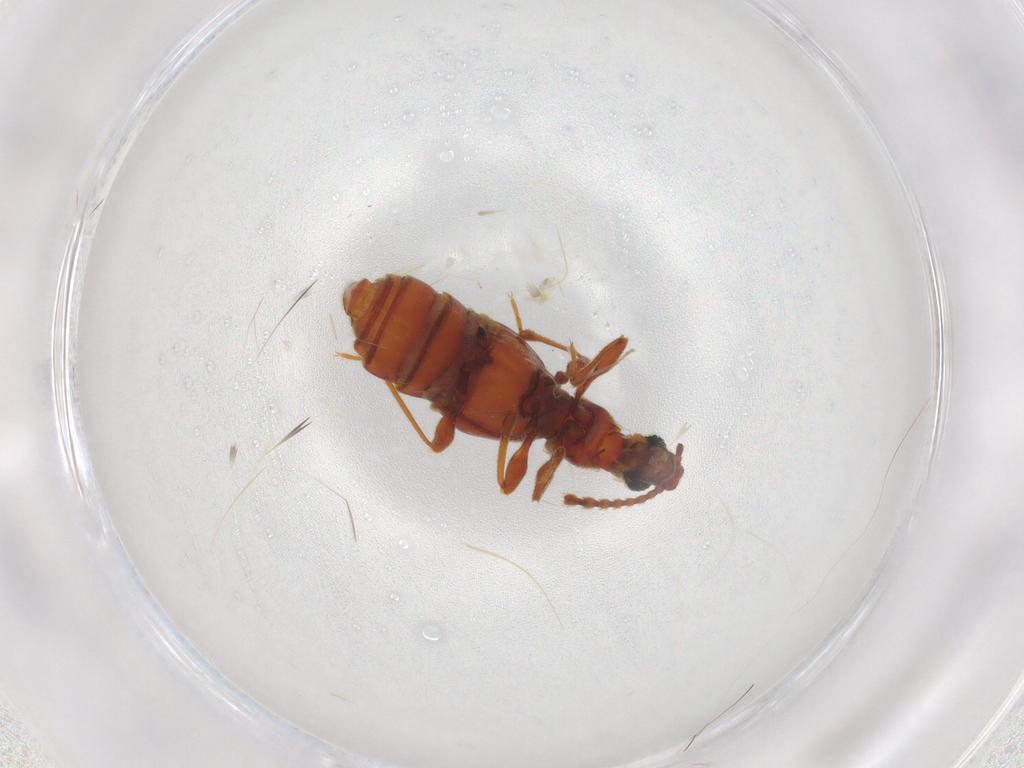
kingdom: Animalia
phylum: Arthropoda
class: Insecta
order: Coleoptera
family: Staphylinidae
